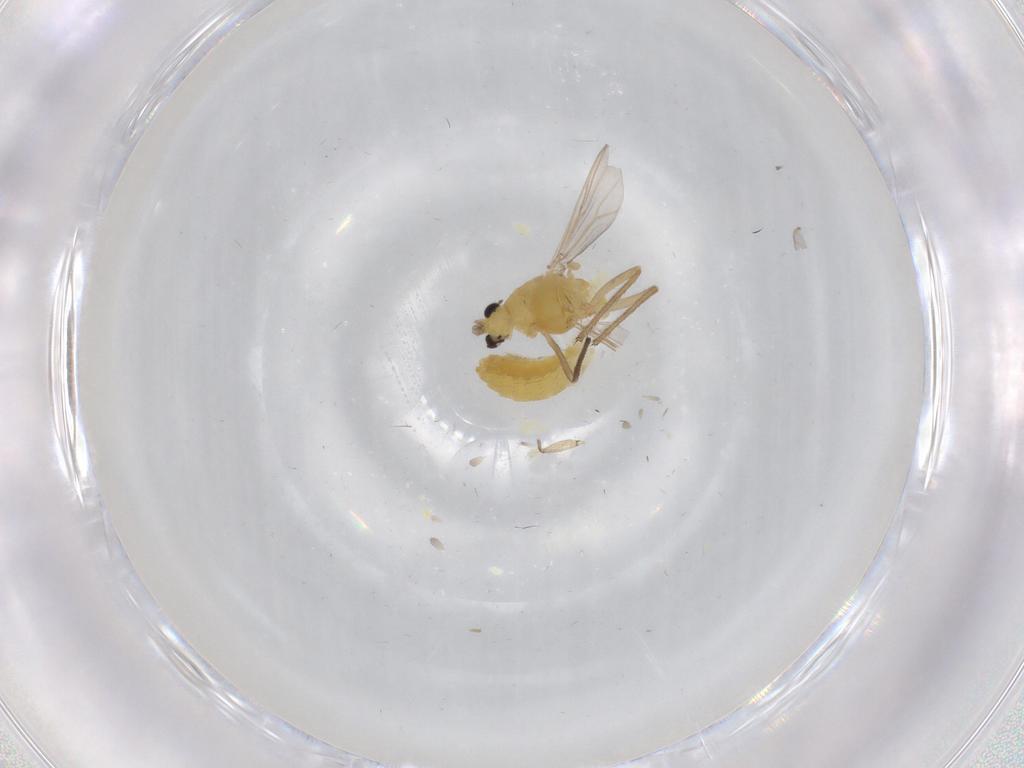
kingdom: Animalia
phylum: Arthropoda
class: Insecta
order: Diptera
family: Chironomidae
